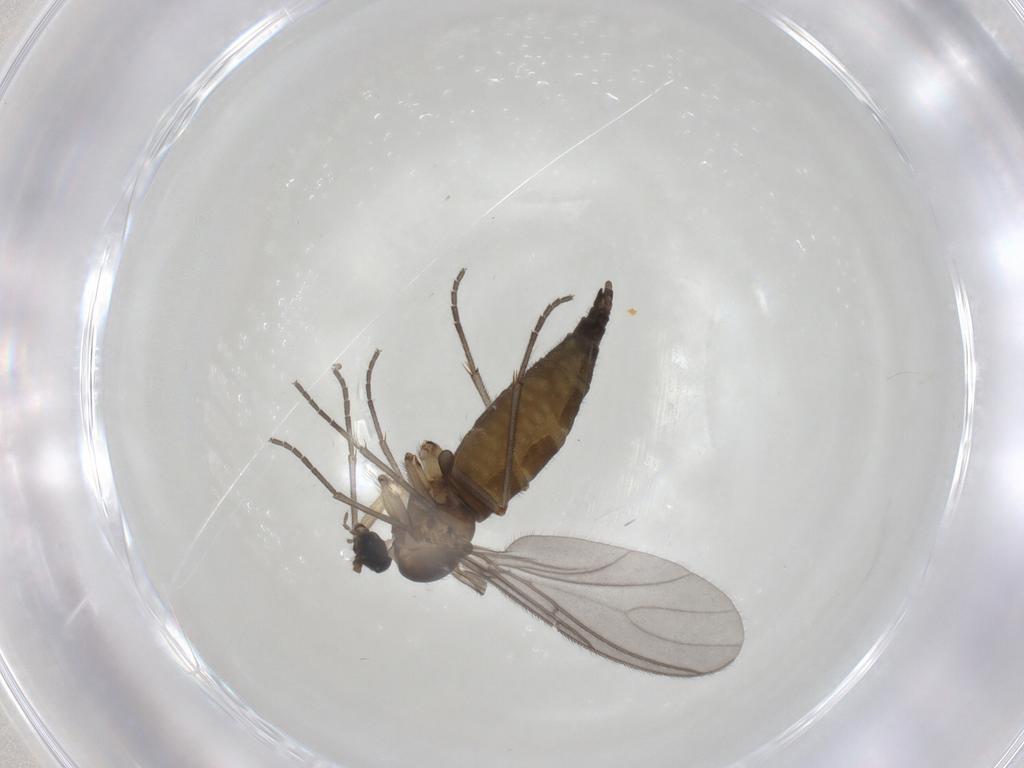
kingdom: Animalia
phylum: Arthropoda
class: Insecta
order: Diptera
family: Sciaridae
